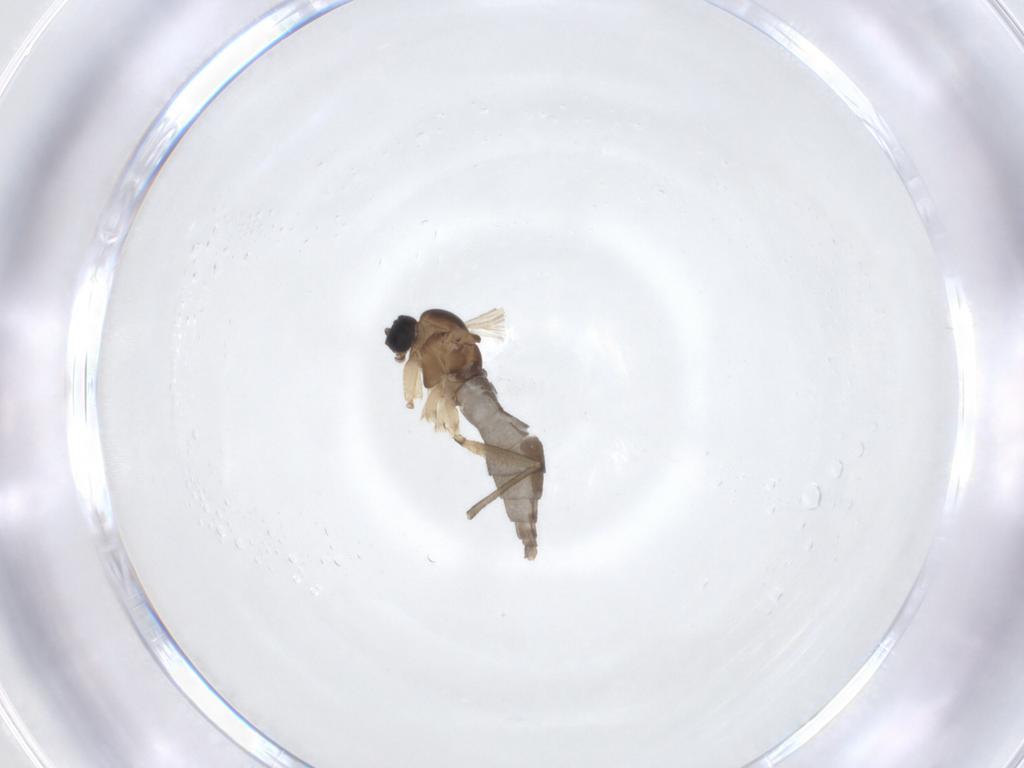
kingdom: Animalia
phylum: Arthropoda
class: Insecta
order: Diptera
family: Sciaridae
